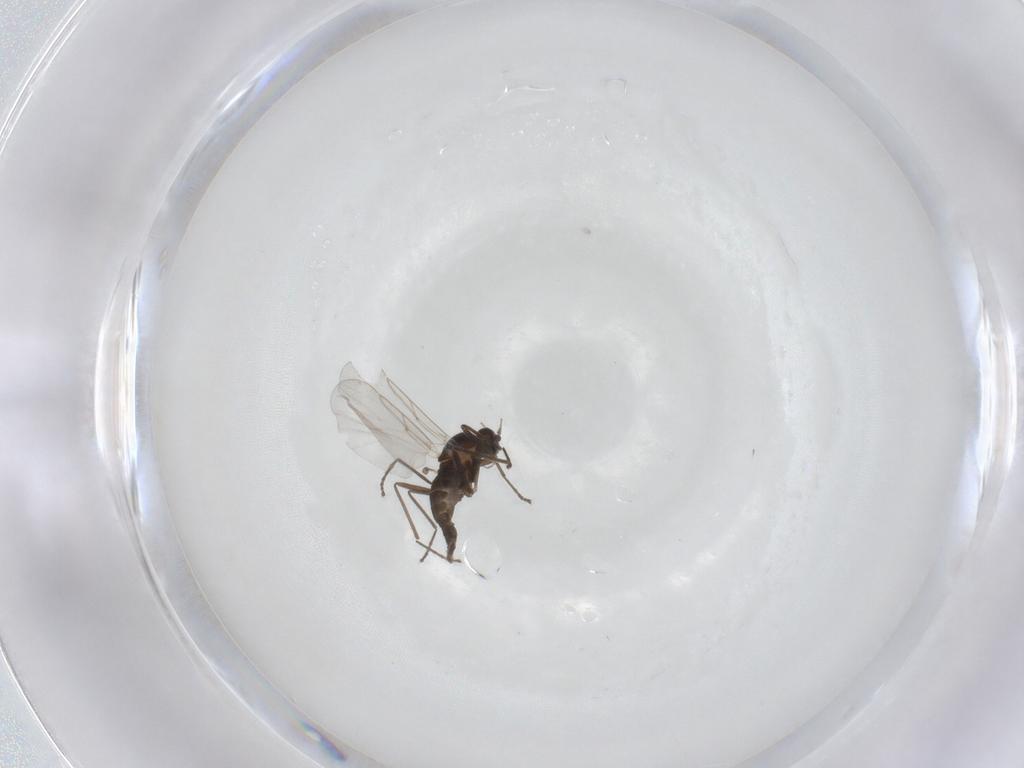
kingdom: Animalia
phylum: Arthropoda
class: Insecta
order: Diptera
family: Cecidomyiidae
